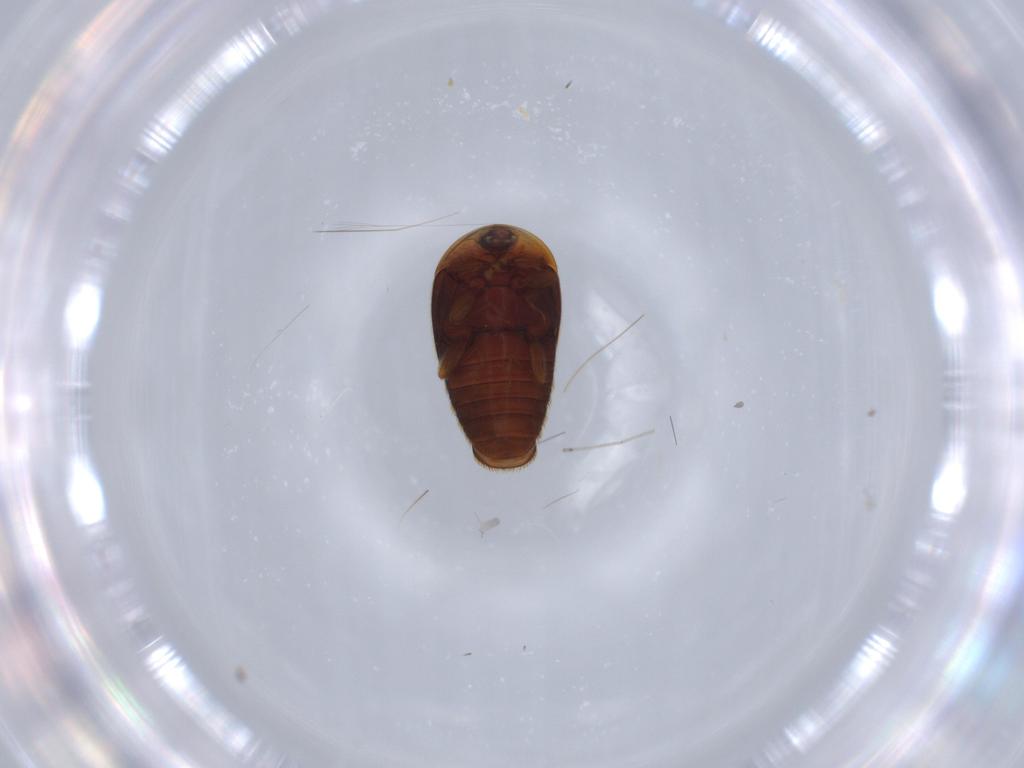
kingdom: Animalia
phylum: Arthropoda
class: Insecta
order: Coleoptera
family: Corylophidae
